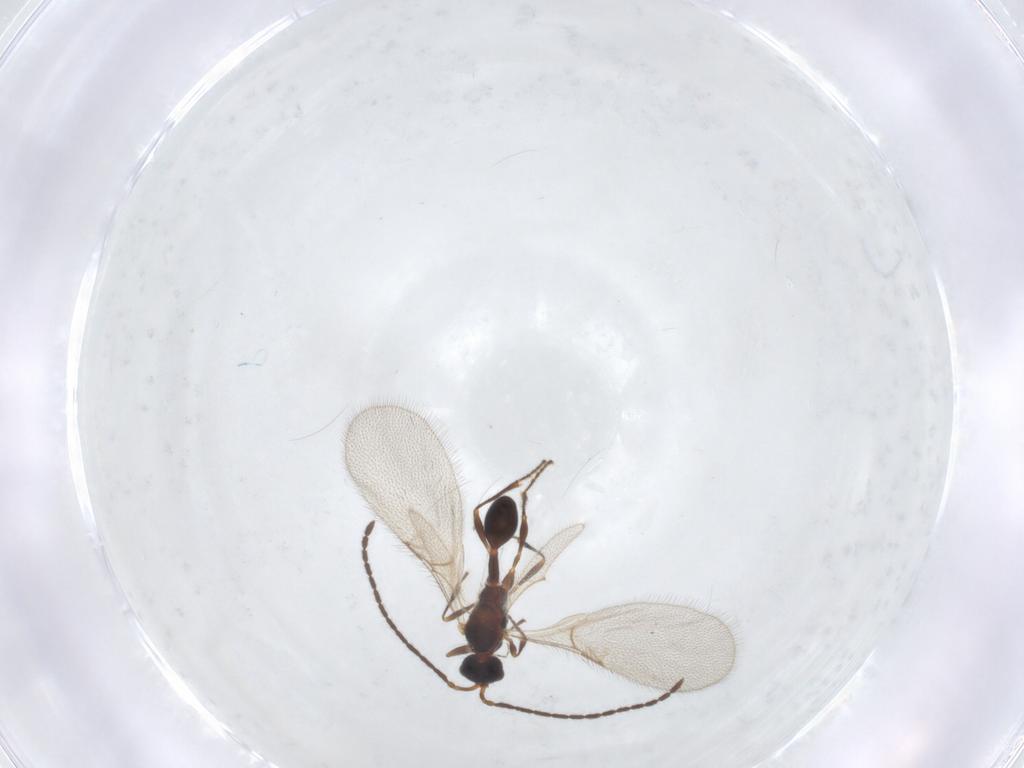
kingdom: Animalia
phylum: Arthropoda
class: Insecta
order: Hymenoptera
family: Diapriidae
